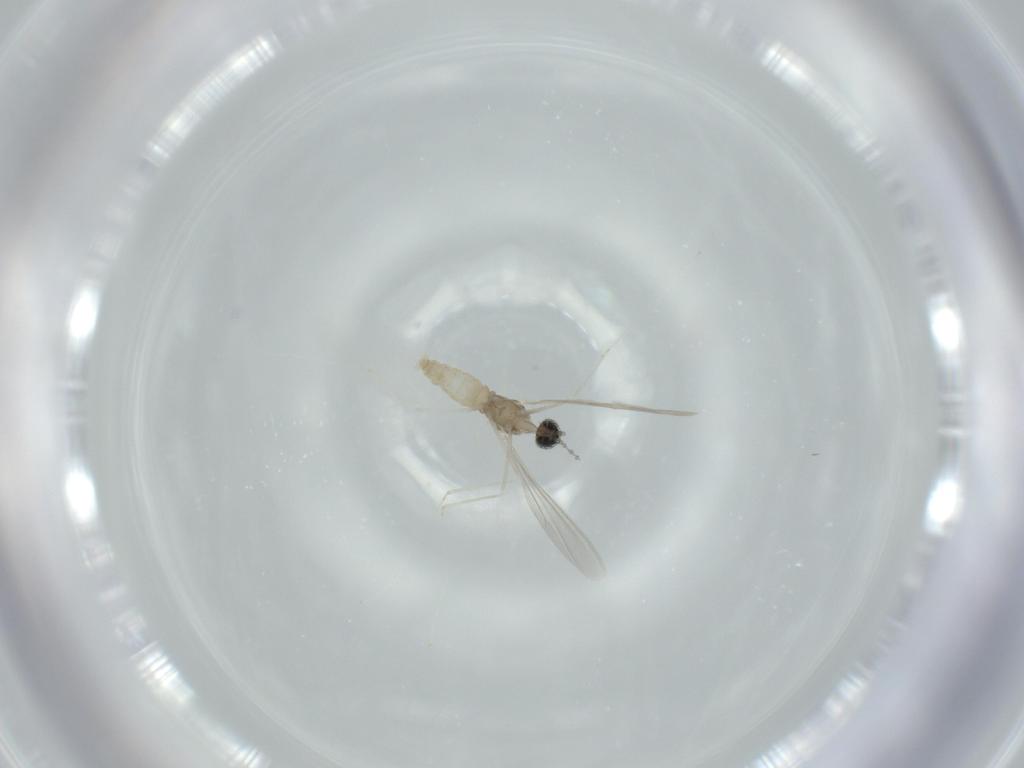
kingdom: Animalia
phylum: Arthropoda
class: Insecta
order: Diptera
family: Cecidomyiidae
